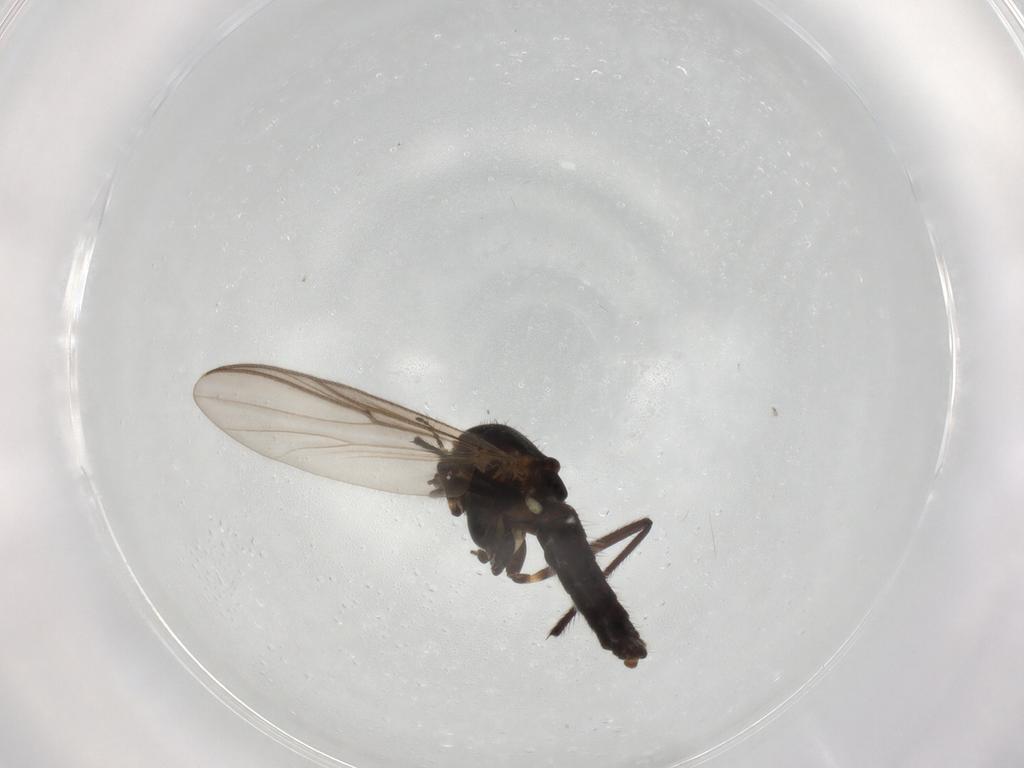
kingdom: Animalia
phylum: Arthropoda
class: Insecta
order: Diptera
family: Chironomidae
